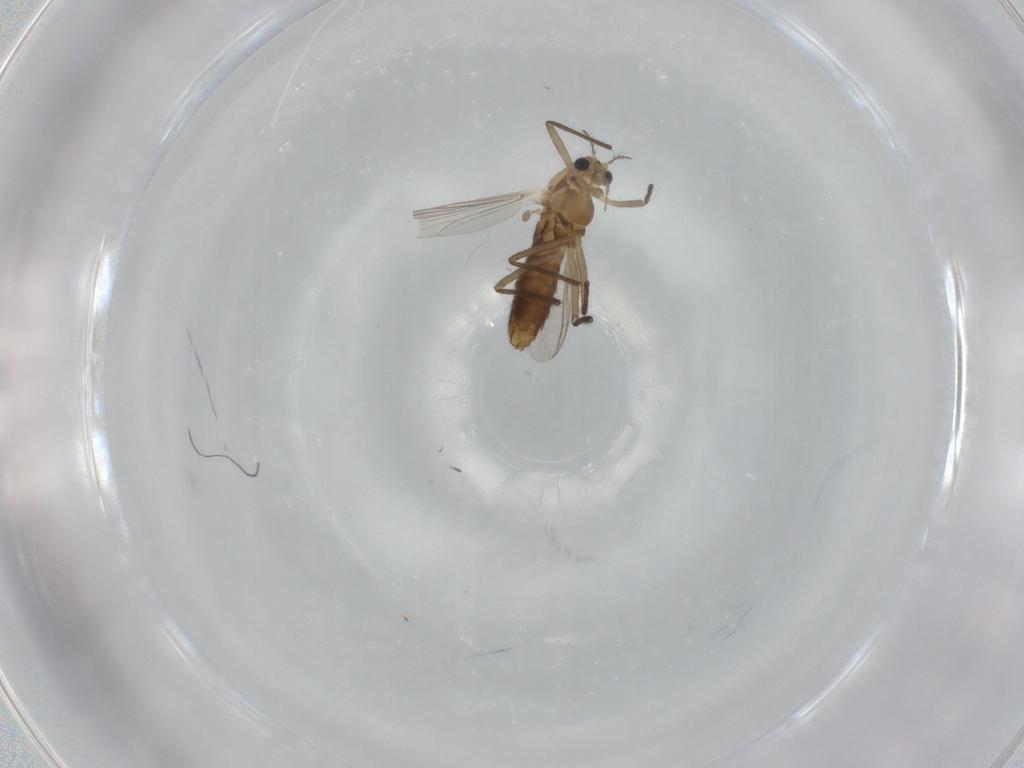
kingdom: Animalia
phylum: Arthropoda
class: Insecta
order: Diptera
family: Chironomidae
